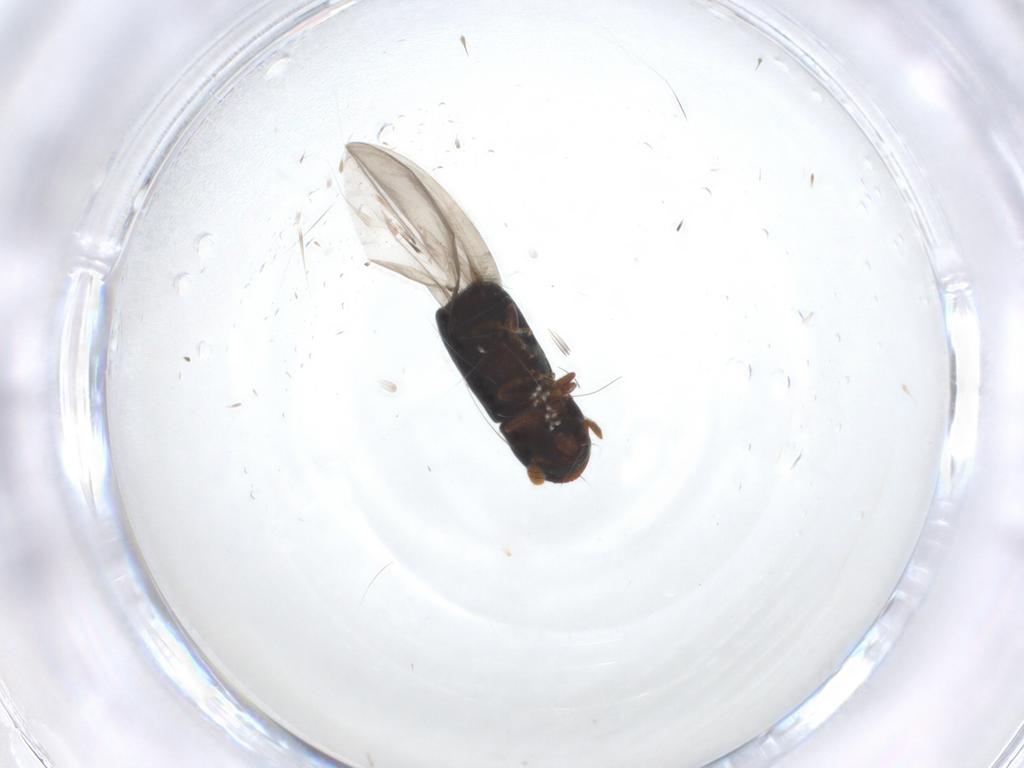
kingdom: Animalia
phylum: Arthropoda
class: Insecta
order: Coleoptera
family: Curculionidae
